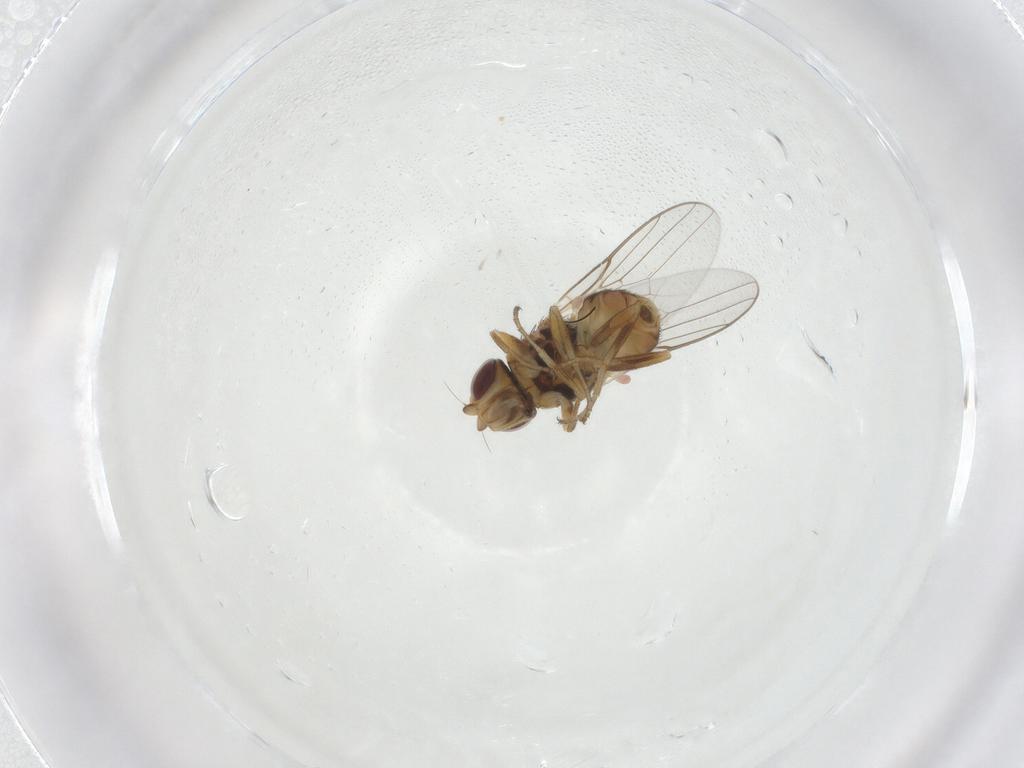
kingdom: Animalia
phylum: Arthropoda
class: Insecta
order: Diptera
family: Chloropidae
